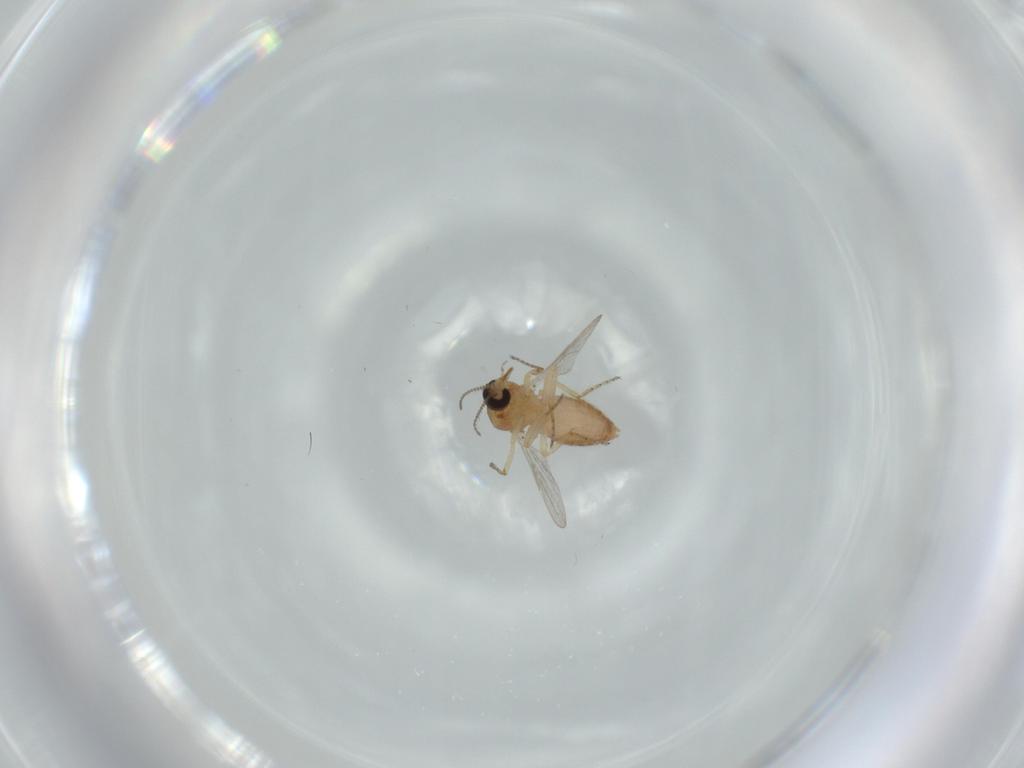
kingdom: Animalia
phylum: Arthropoda
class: Insecta
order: Diptera
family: Ceratopogonidae
